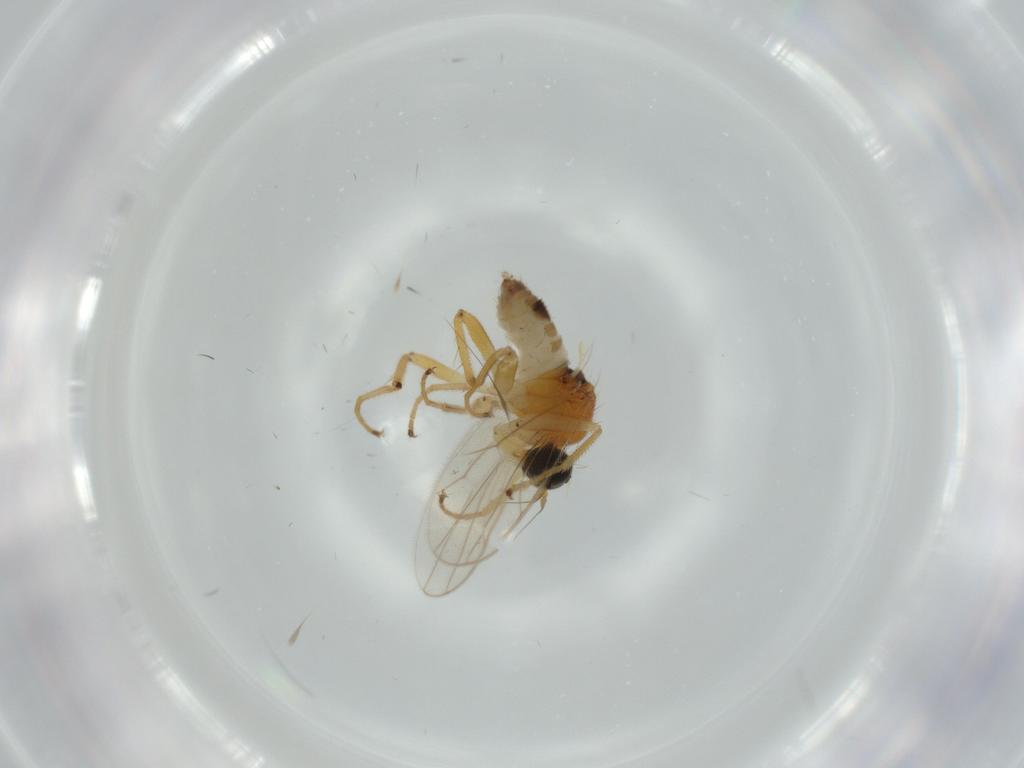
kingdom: Animalia
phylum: Arthropoda
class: Insecta
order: Diptera
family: Hybotidae
